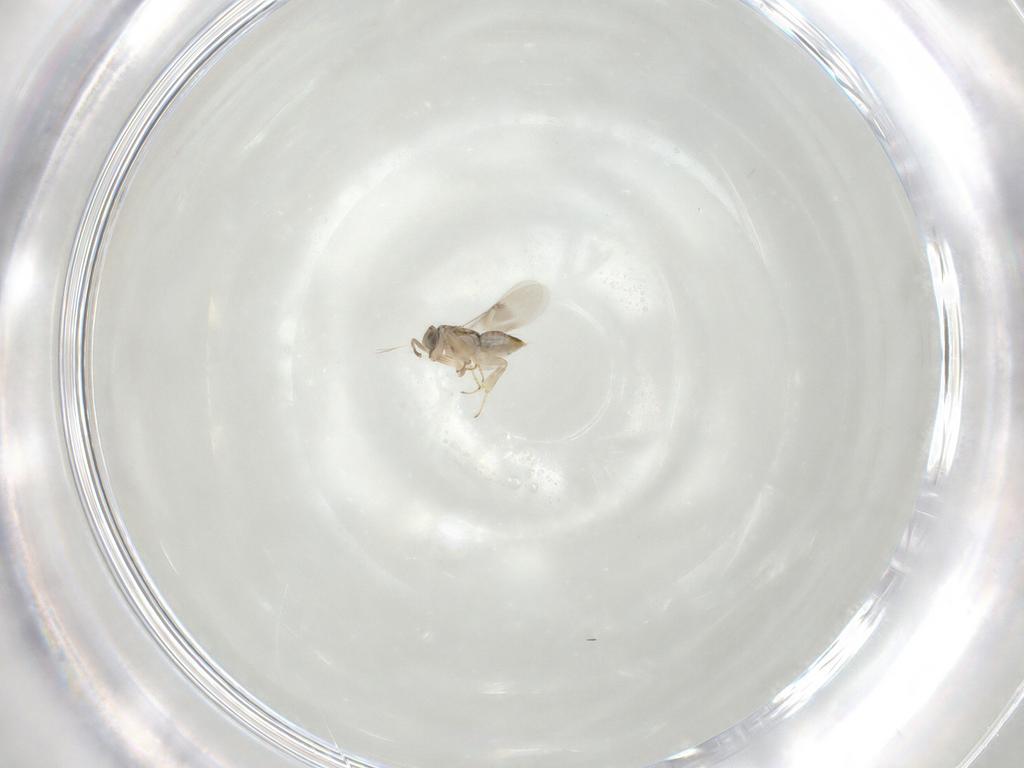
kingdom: Animalia
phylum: Arthropoda
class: Insecta
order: Hymenoptera
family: Encyrtidae
